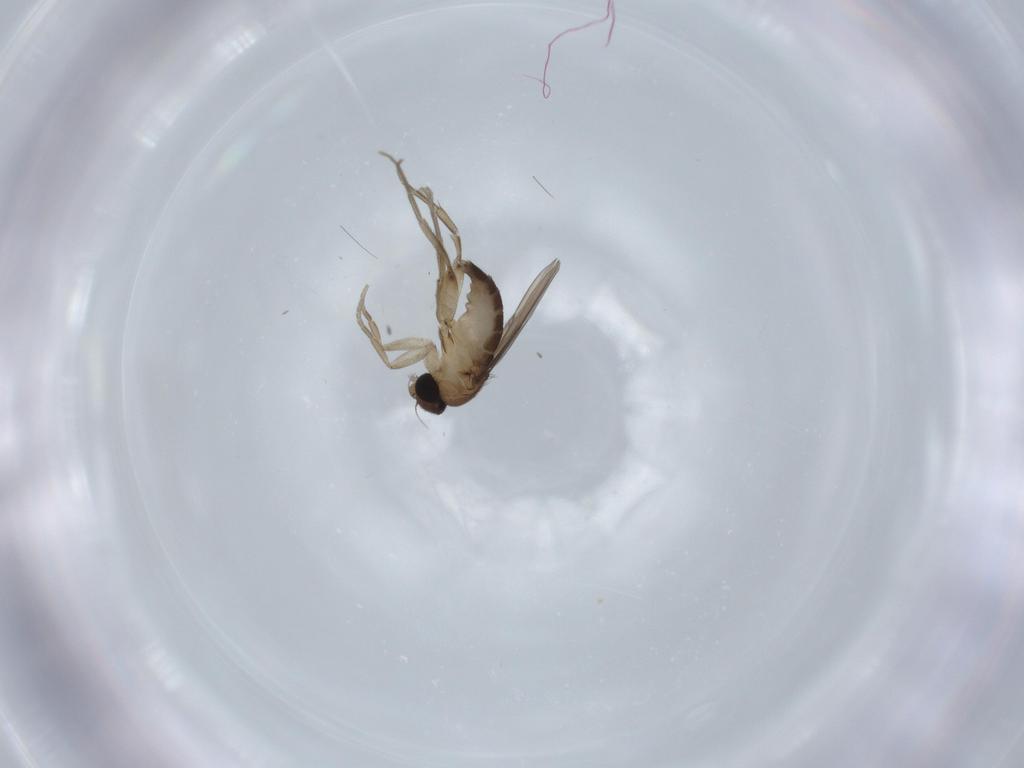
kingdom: Animalia
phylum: Arthropoda
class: Insecta
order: Diptera
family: Phoridae
